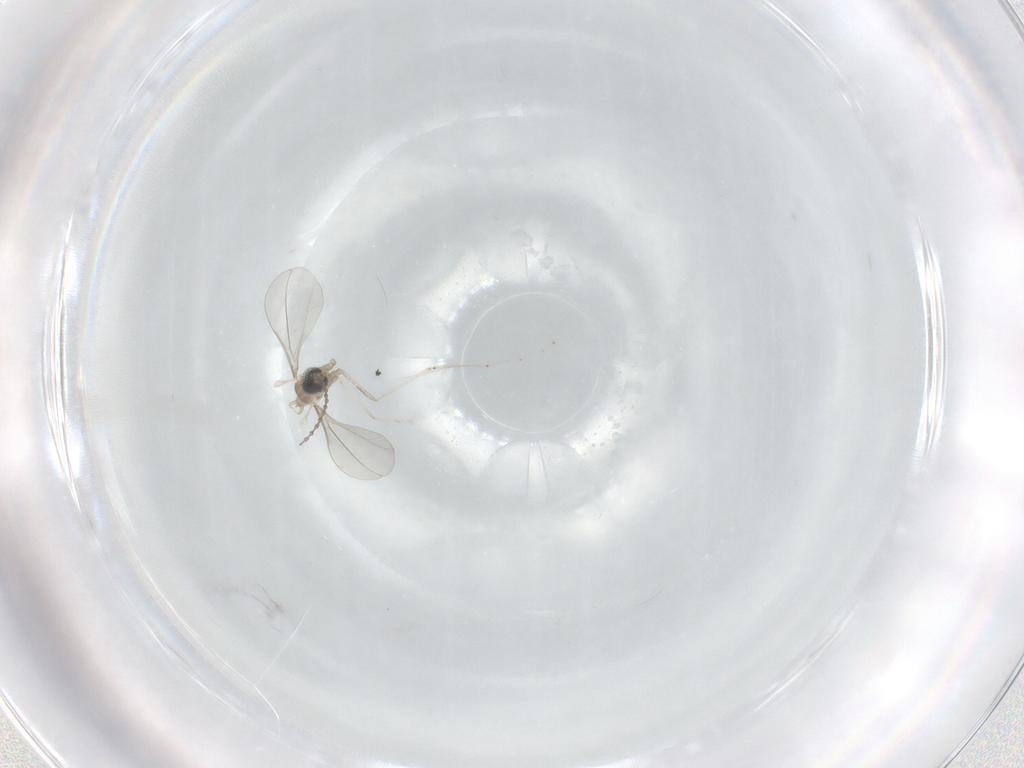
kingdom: Animalia
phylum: Arthropoda
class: Insecta
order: Diptera
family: Cecidomyiidae
